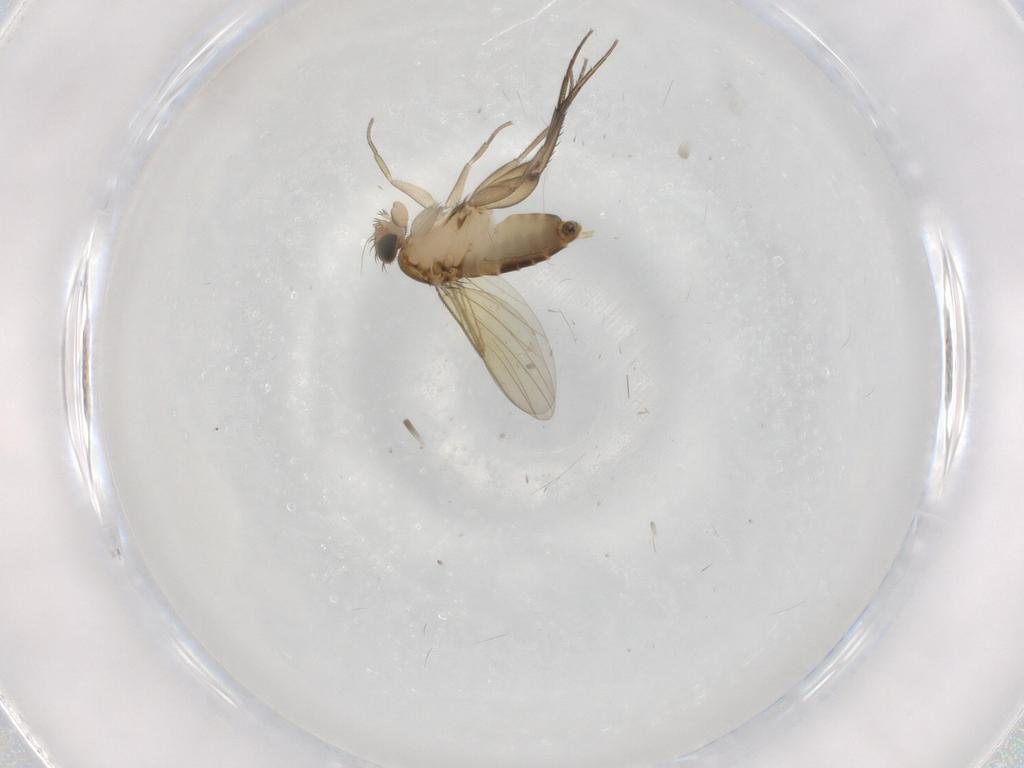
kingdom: Animalia
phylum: Arthropoda
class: Insecta
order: Diptera
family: Phoridae
